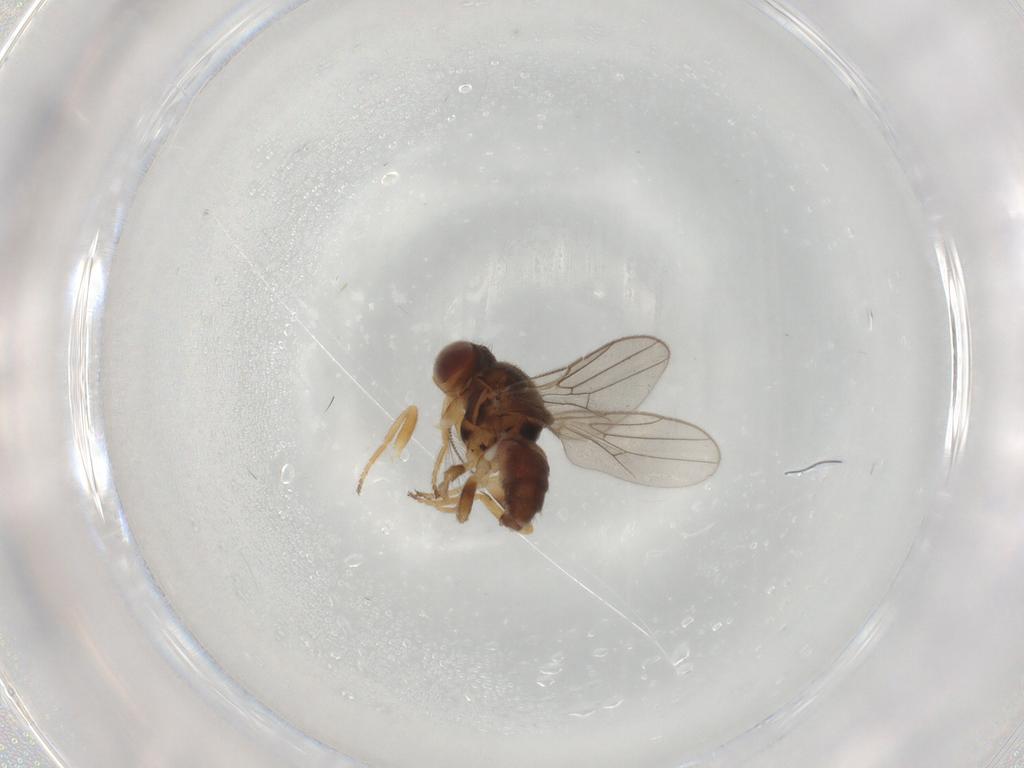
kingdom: Animalia
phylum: Arthropoda
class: Insecta
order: Diptera
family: Chloropidae
